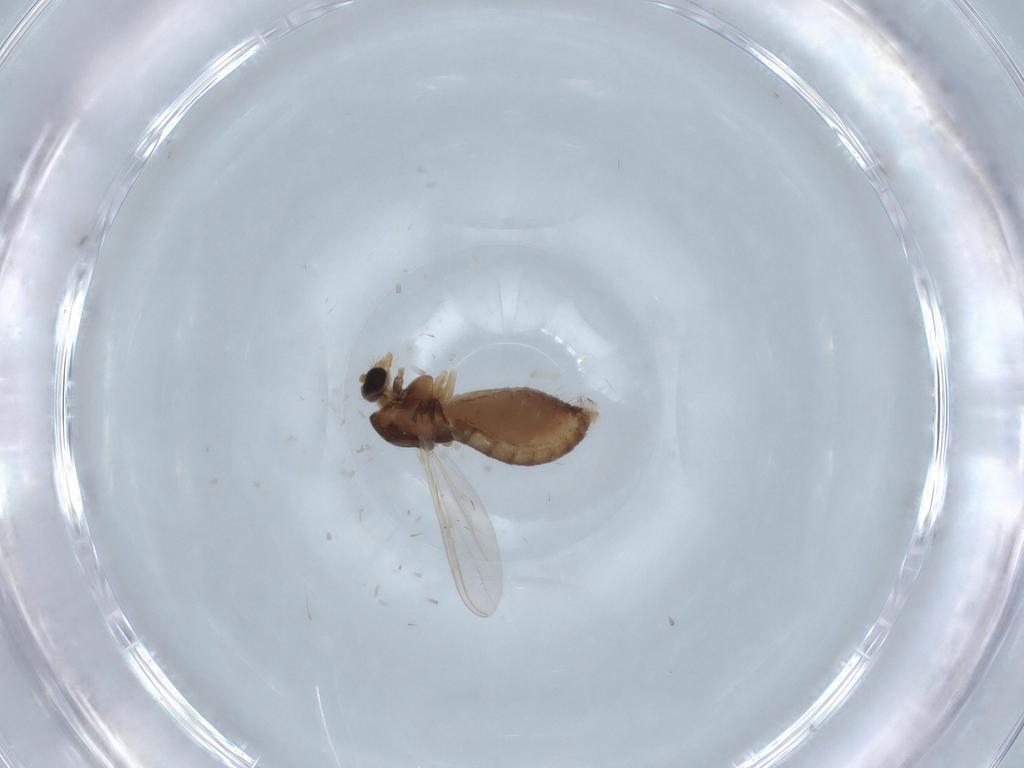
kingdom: Animalia
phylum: Arthropoda
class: Insecta
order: Diptera
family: Chironomidae
